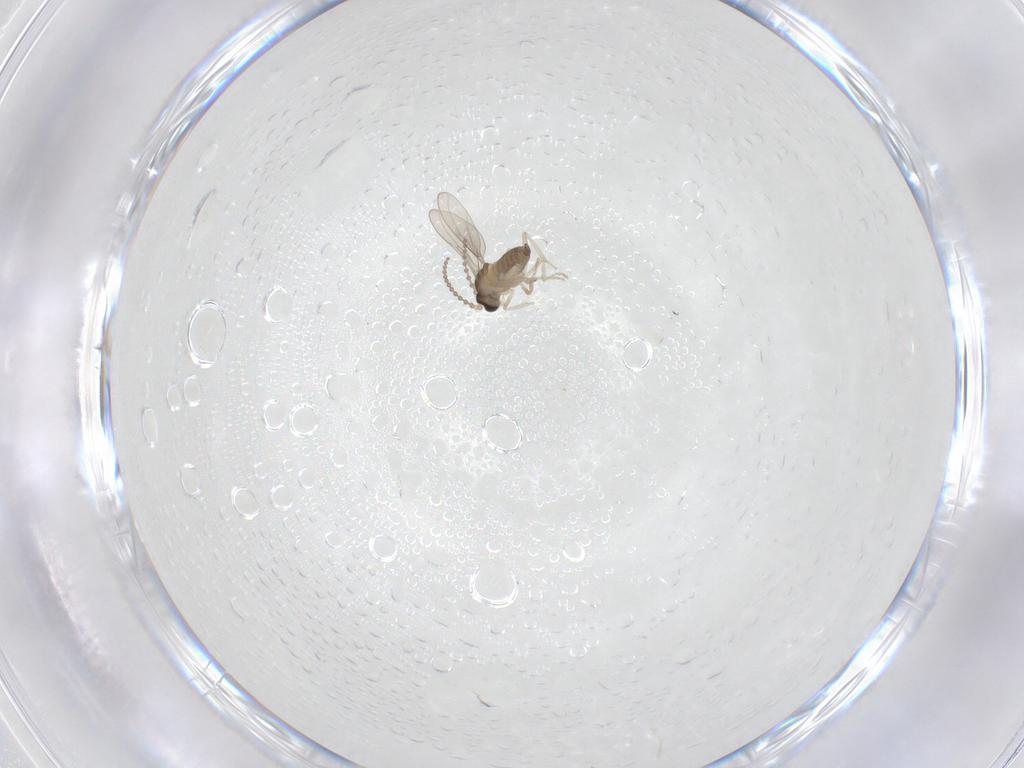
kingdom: Animalia
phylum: Arthropoda
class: Insecta
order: Diptera
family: Cecidomyiidae
